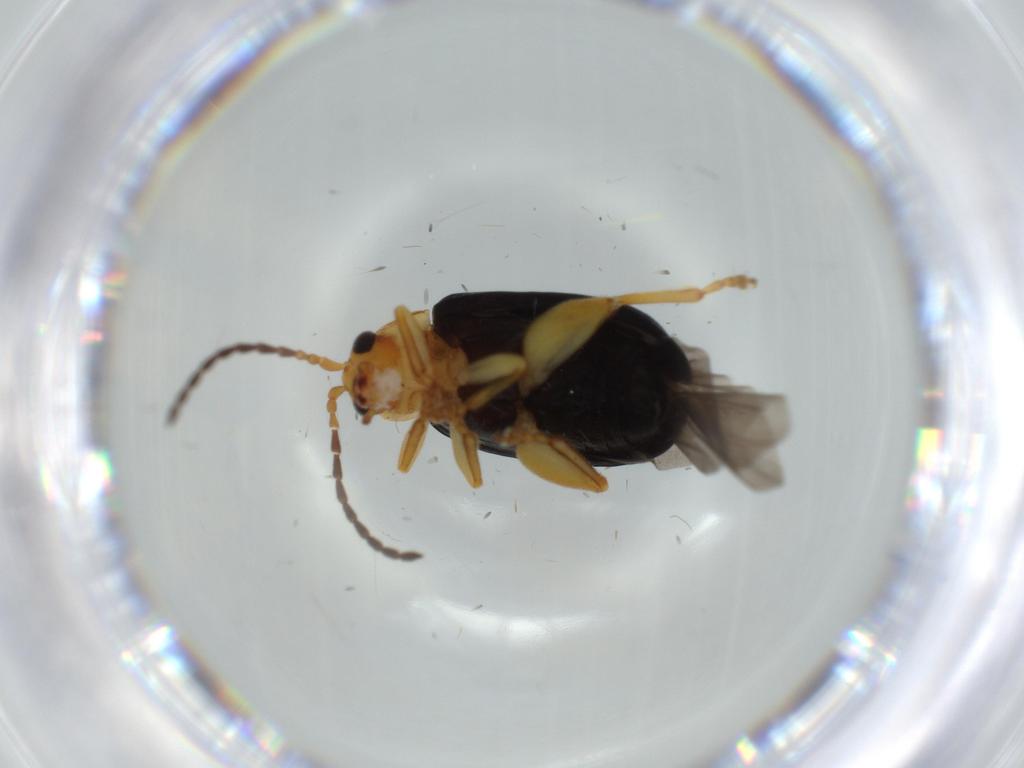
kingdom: Animalia
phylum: Arthropoda
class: Insecta
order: Coleoptera
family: Chrysomelidae
